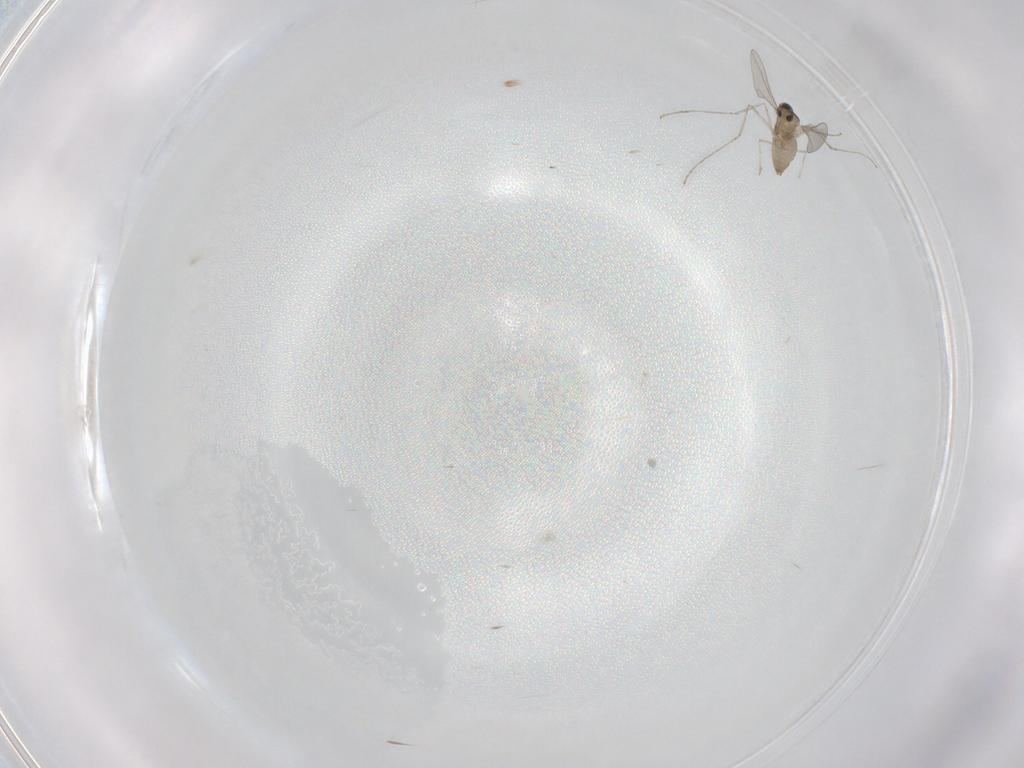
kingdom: Animalia
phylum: Arthropoda
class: Insecta
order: Diptera
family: Cecidomyiidae
